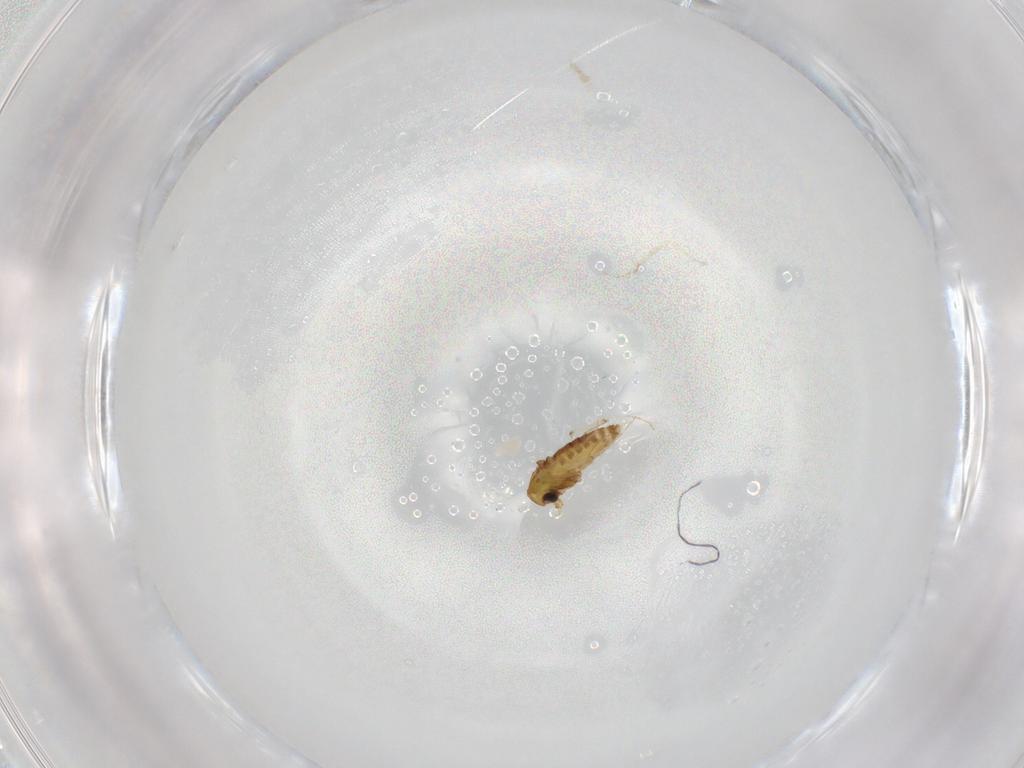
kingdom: Animalia
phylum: Arthropoda
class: Insecta
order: Diptera
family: Chironomidae
